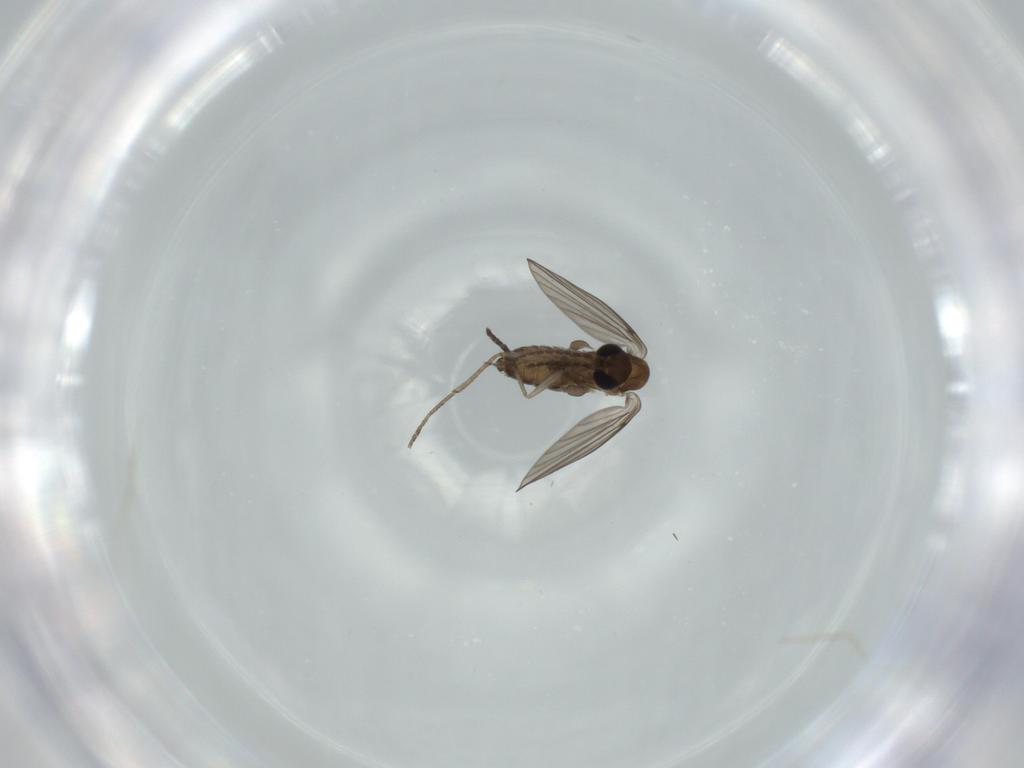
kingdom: Animalia
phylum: Arthropoda
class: Insecta
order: Diptera
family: Psychodidae
